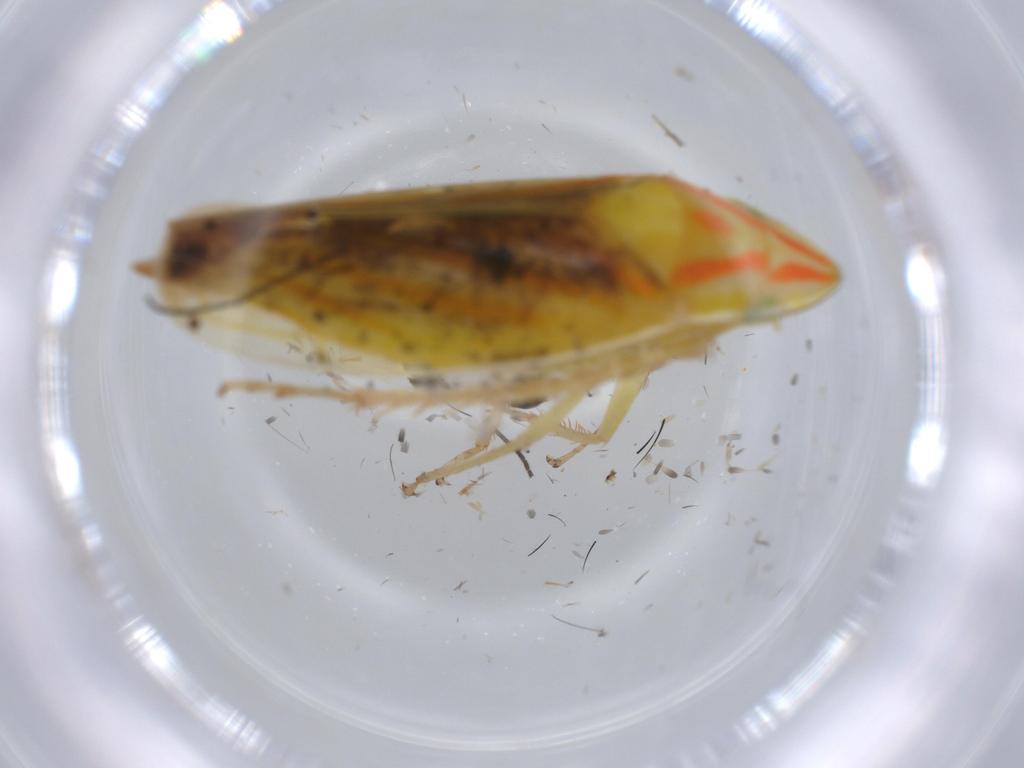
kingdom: Animalia
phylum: Arthropoda
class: Insecta
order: Hemiptera
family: Cicadellidae
